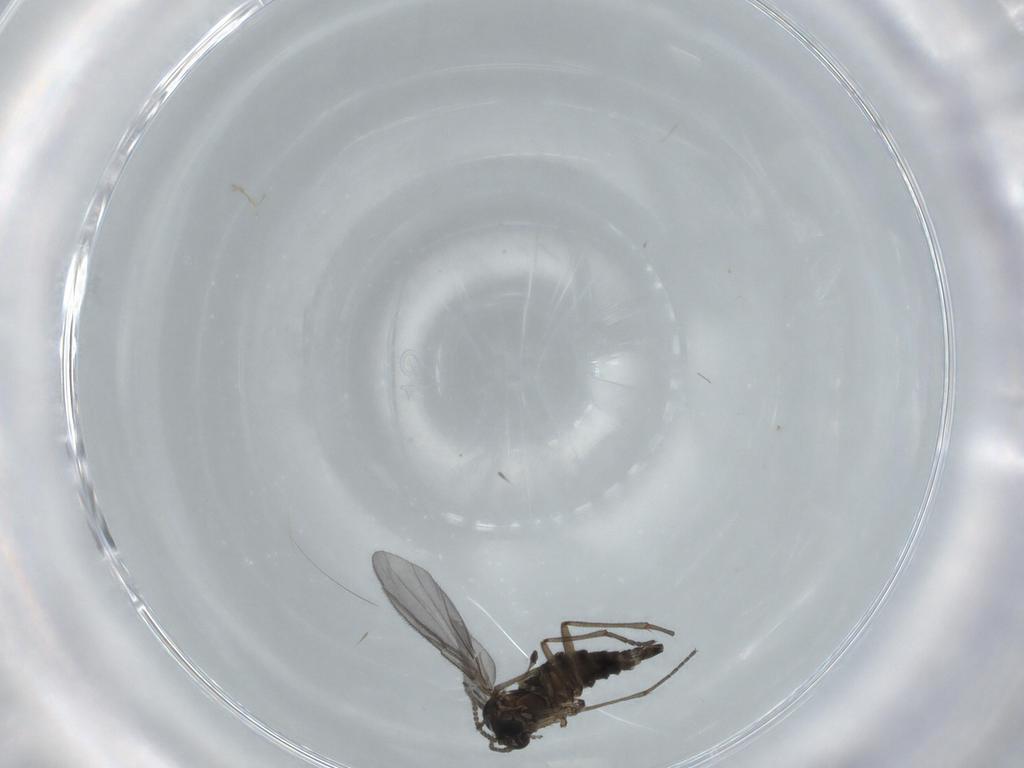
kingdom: Animalia
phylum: Arthropoda
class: Insecta
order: Diptera
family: Sciaridae
